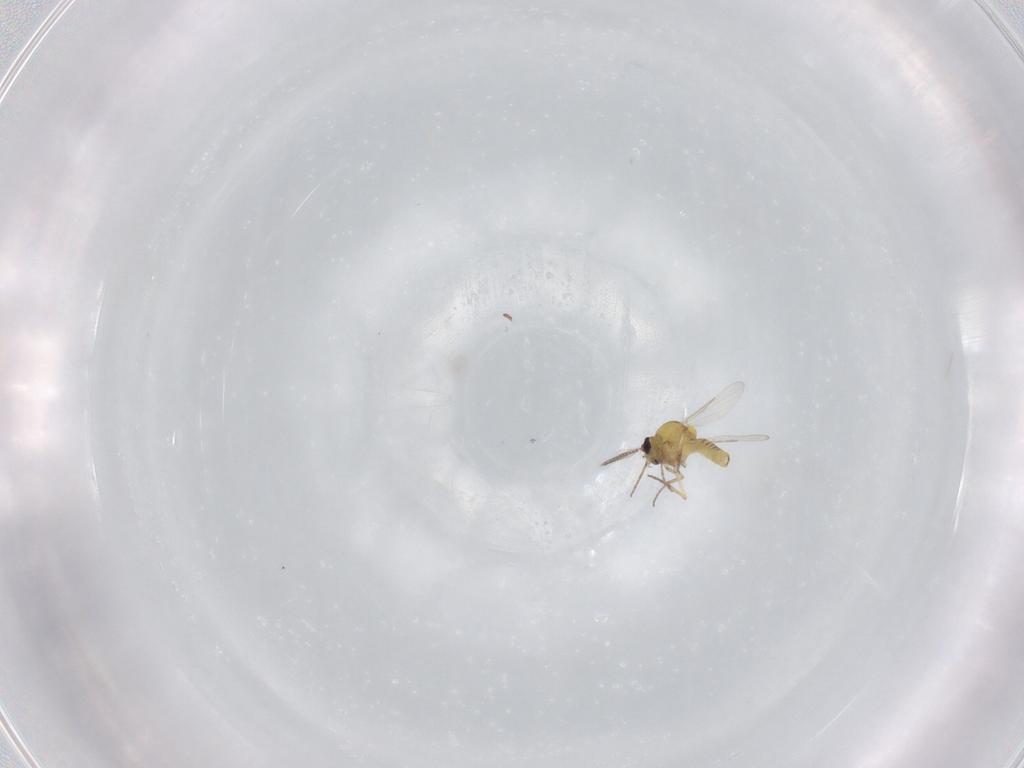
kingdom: Animalia
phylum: Arthropoda
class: Insecta
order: Diptera
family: Ceratopogonidae
